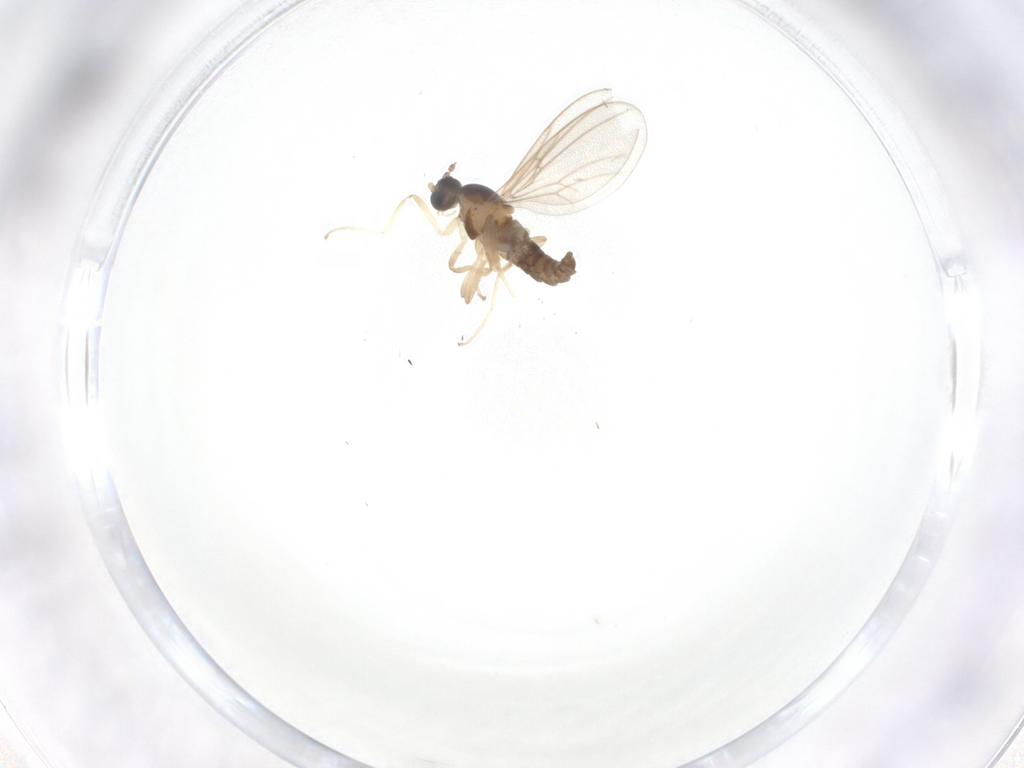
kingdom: Animalia
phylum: Arthropoda
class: Insecta
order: Diptera
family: Cecidomyiidae
